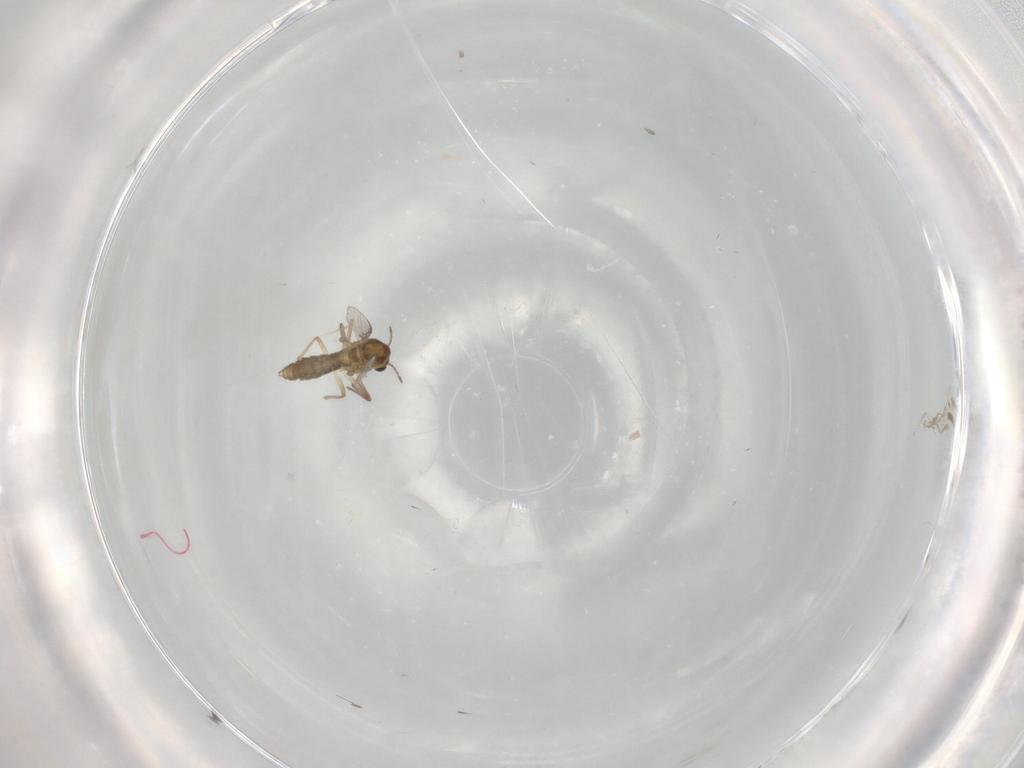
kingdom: Animalia
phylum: Arthropoda
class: Insecta
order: Diptera
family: Chironomidae
